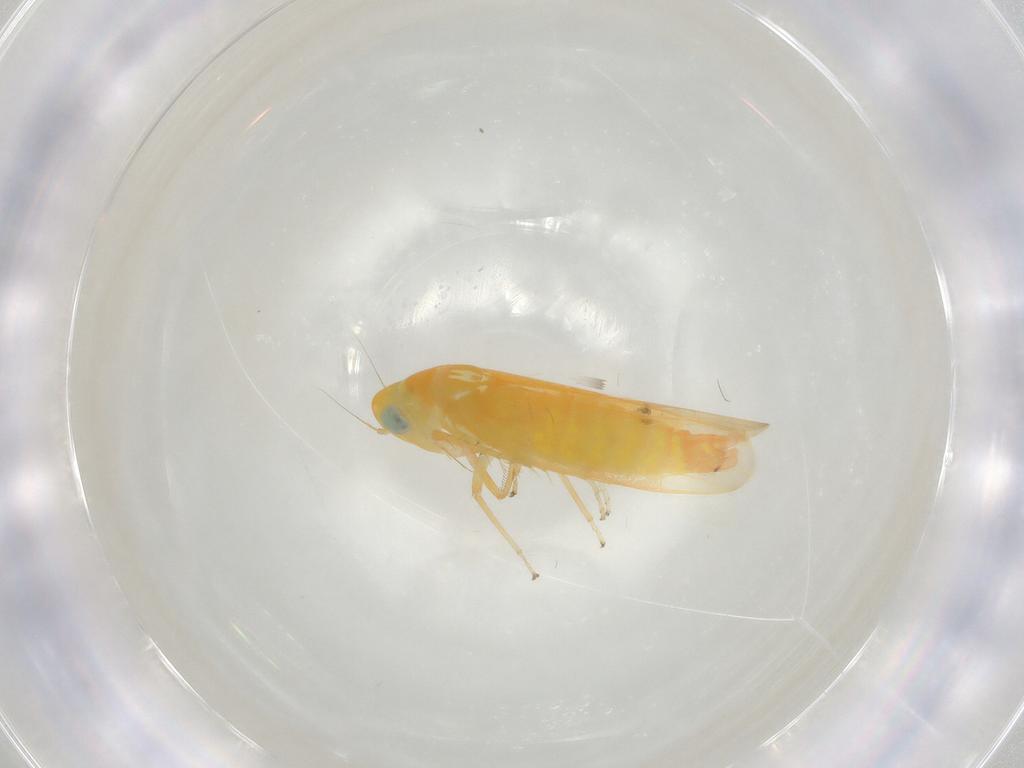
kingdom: Animalia
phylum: Arthropoda
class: Insecta
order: Hemiptera
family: Cicadellidae
